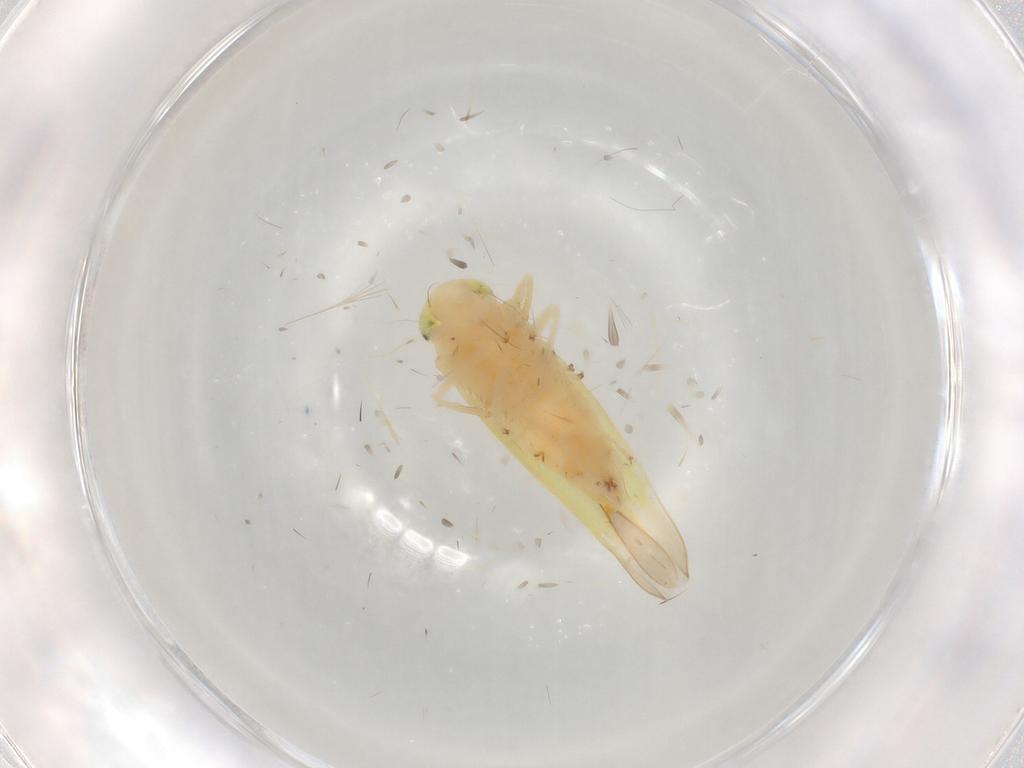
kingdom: Animalia
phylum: Arthropoda
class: Insecta
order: Hemiptera
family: Cicadellidae
